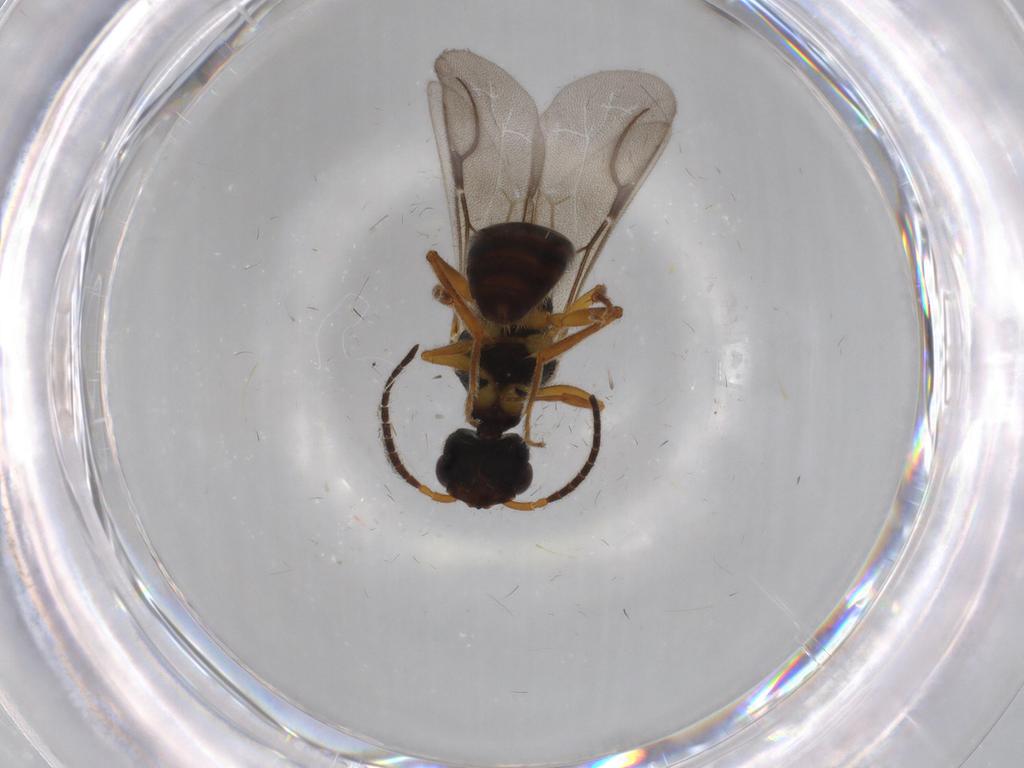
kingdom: Animalia
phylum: Arthropoda
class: Insecta
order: Hymenoptera
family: Bethylidae
